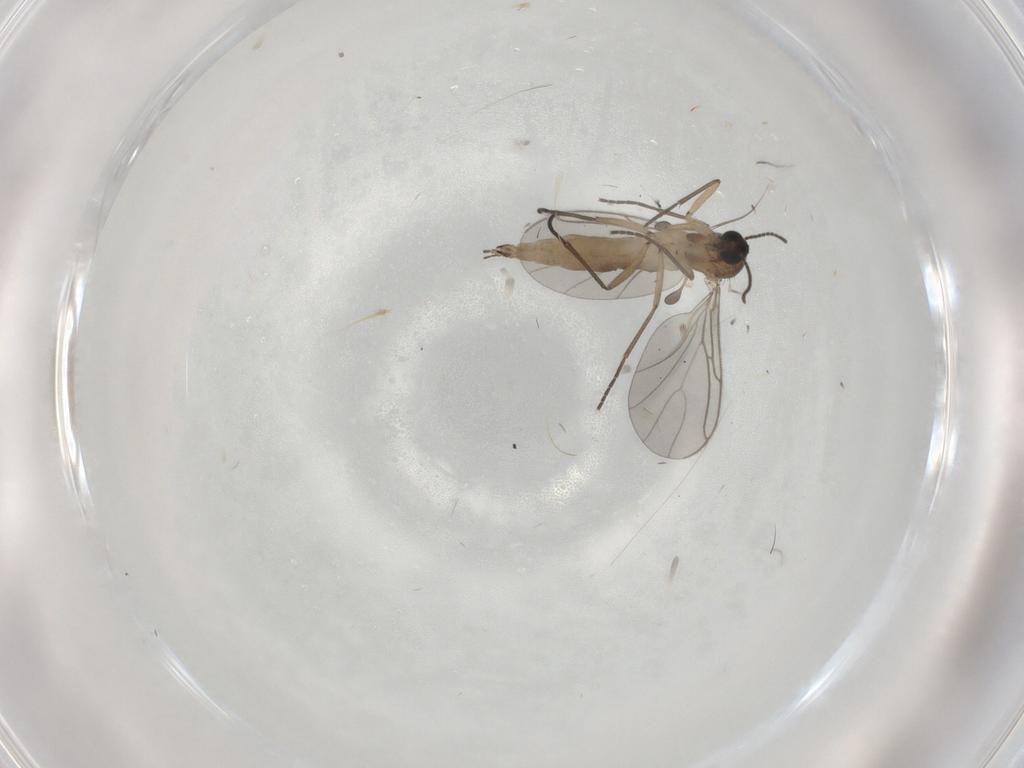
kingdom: Animalia
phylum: Arthropoda
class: Insecta
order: Diptera
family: Sciaridae
